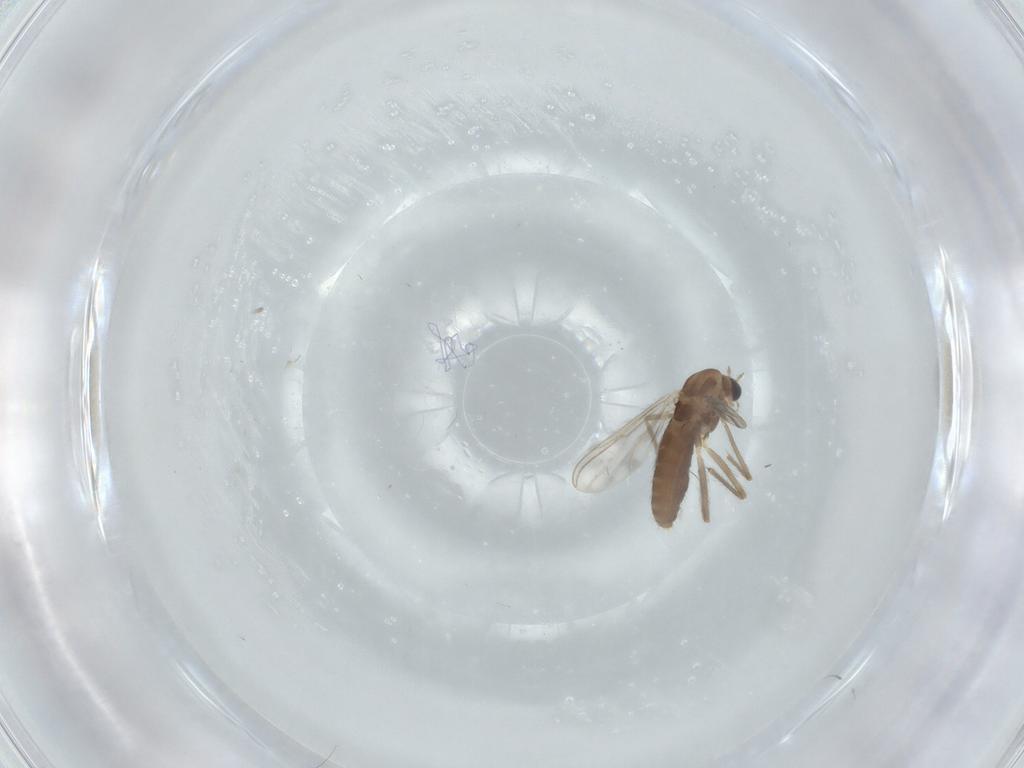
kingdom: Animalia
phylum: Arthropoda
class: Insecta
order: Diptera
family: Chironomidae
